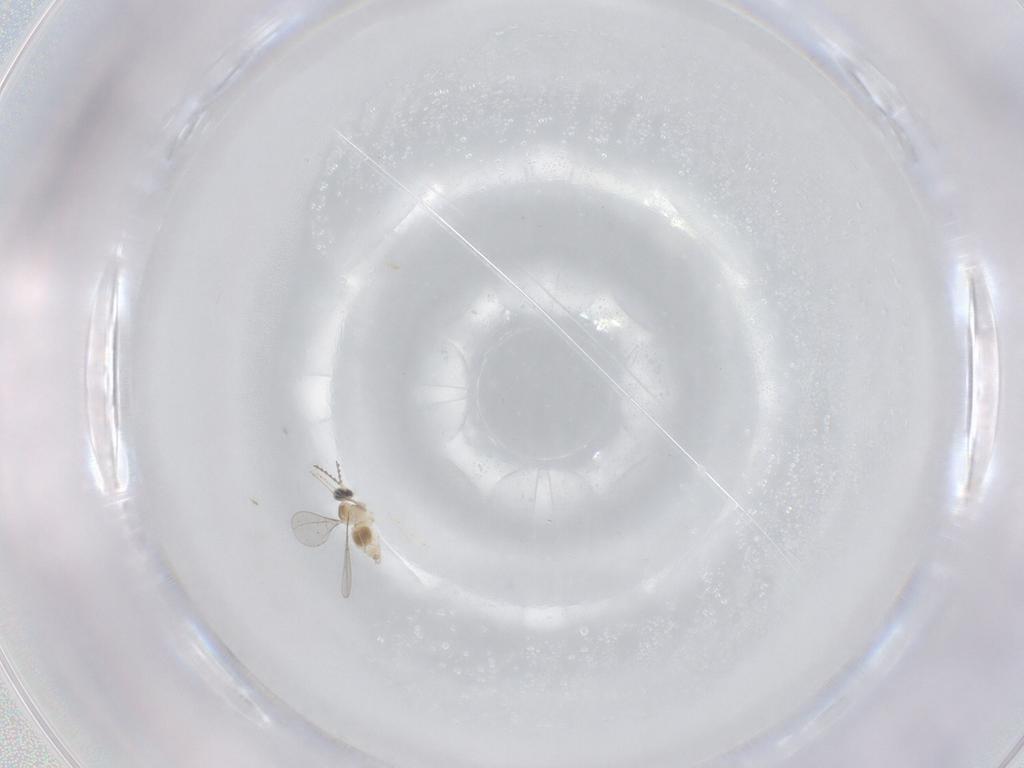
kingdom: Animalia
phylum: Arthropoda
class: Insecta
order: Diptera
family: Cecidomyiidae
